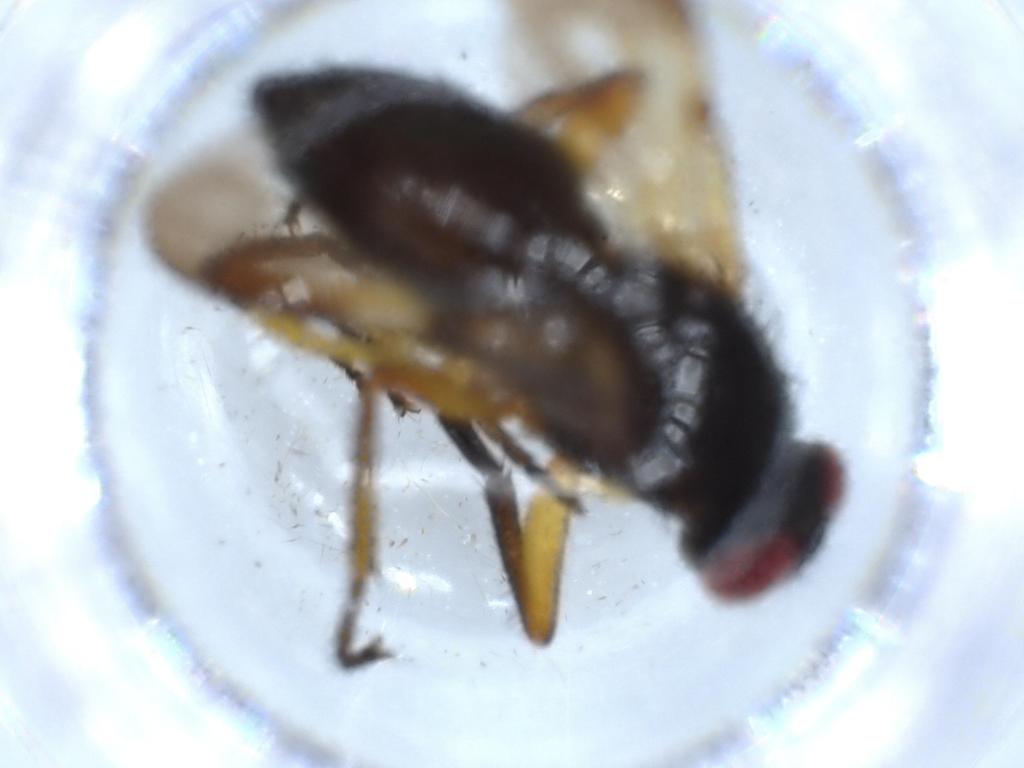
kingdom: Animalia
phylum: Arthropoda
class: Insecta
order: Diptera
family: Calliphoridae
